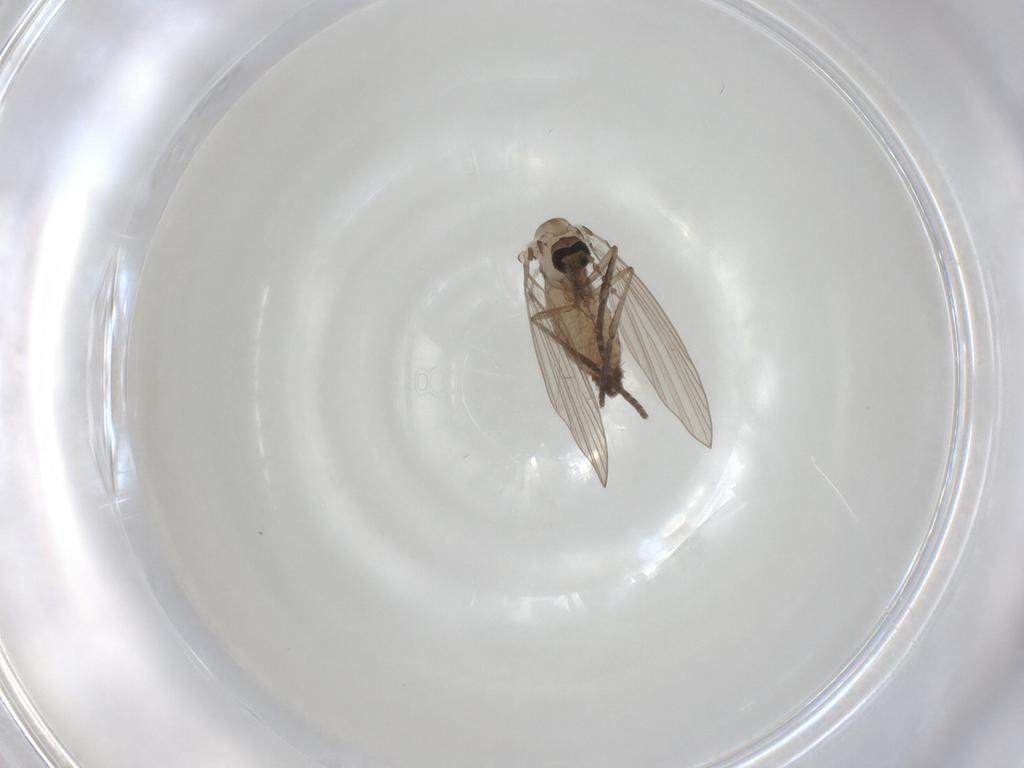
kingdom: Animalia
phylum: Arthropoda
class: Insecta
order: Diptera
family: Psychodidae
